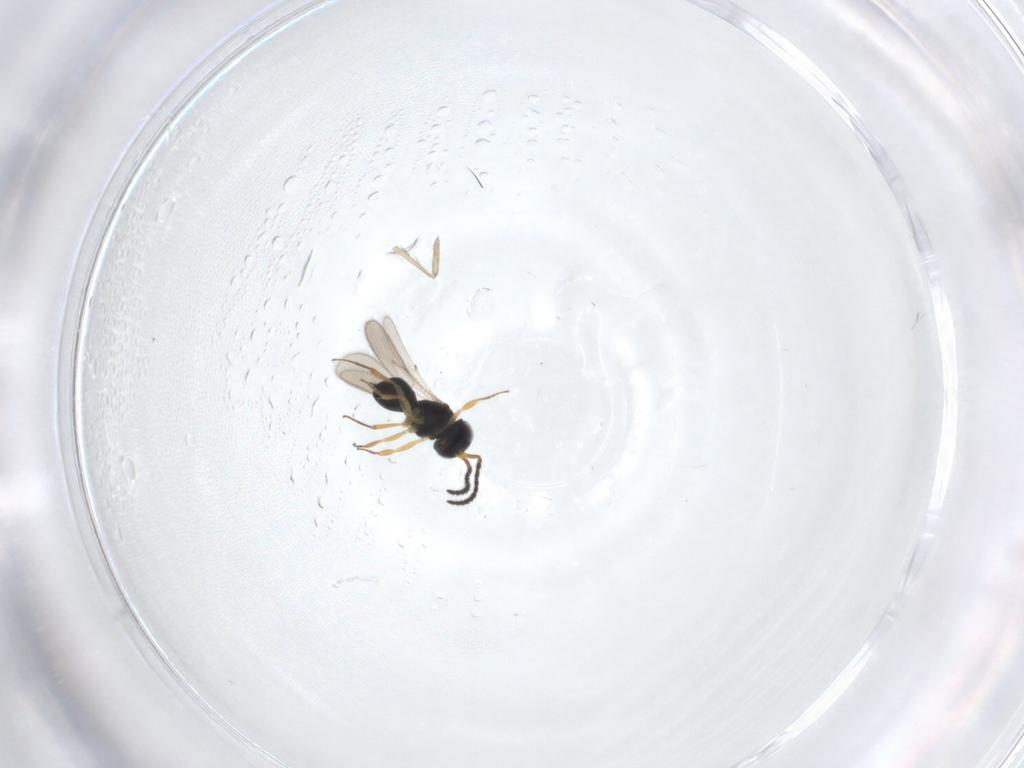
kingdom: Animalia
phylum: Arthropoda
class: Insecta
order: Hymenoptera
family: Scelionidae
